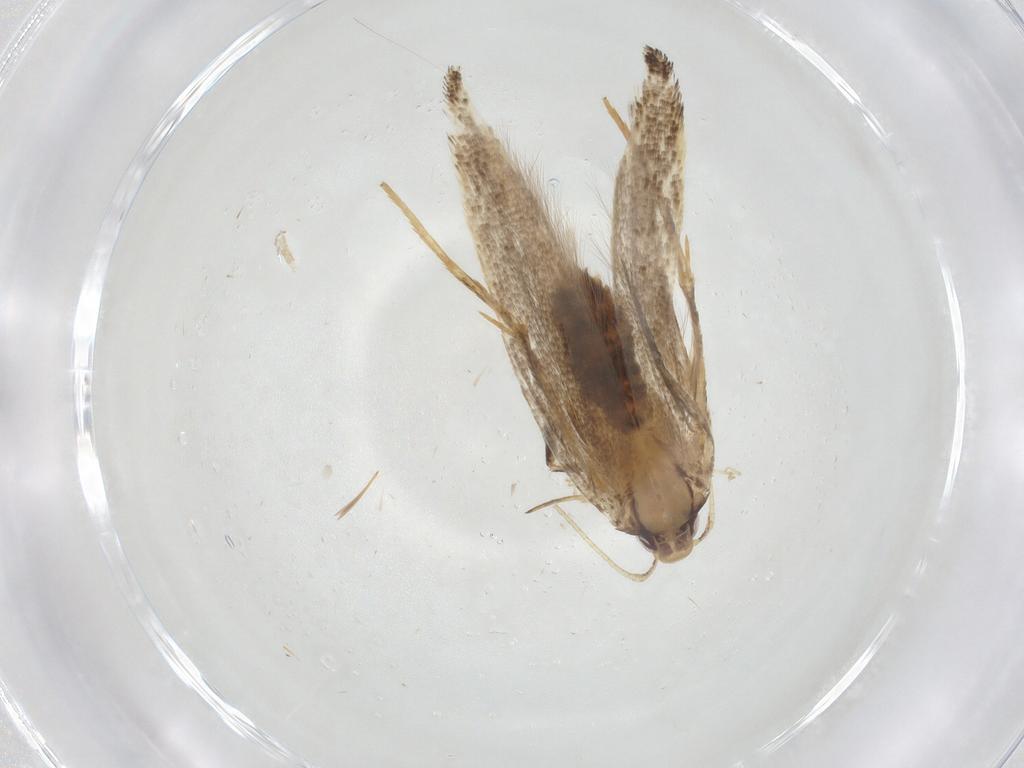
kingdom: Animalia
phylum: Arthropoda
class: Insecta
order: Lepidoptera
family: Cosmopterigidae
